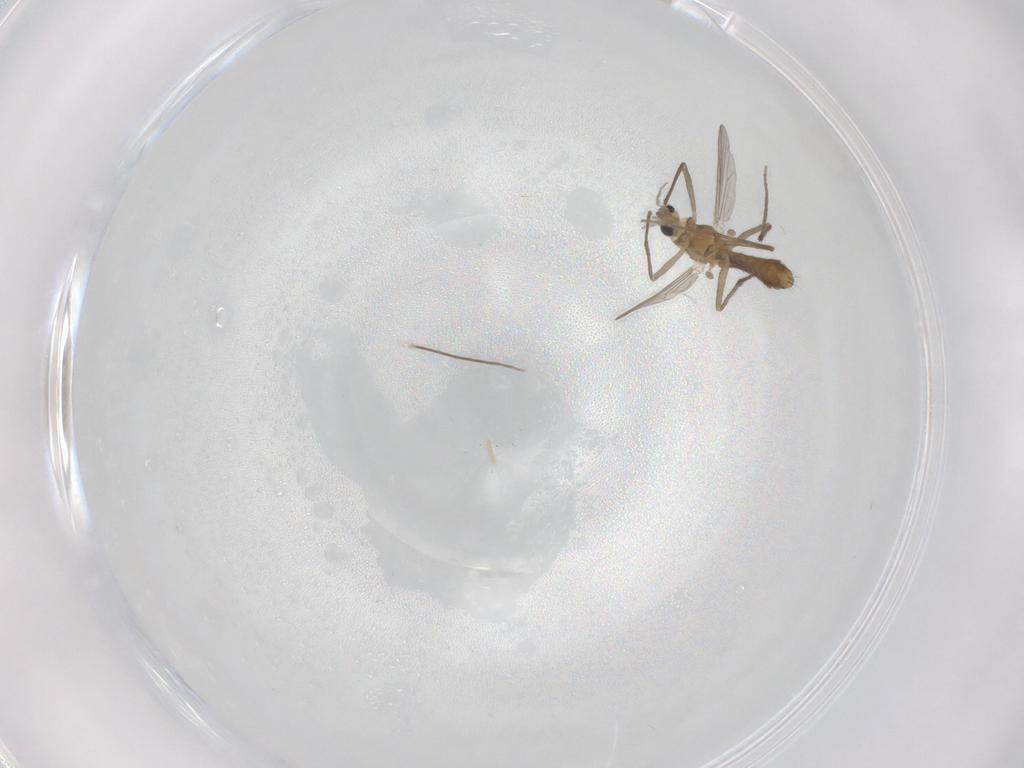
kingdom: Animalia
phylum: Arthropoda
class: Insecta
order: Diptera
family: Chironomidae
